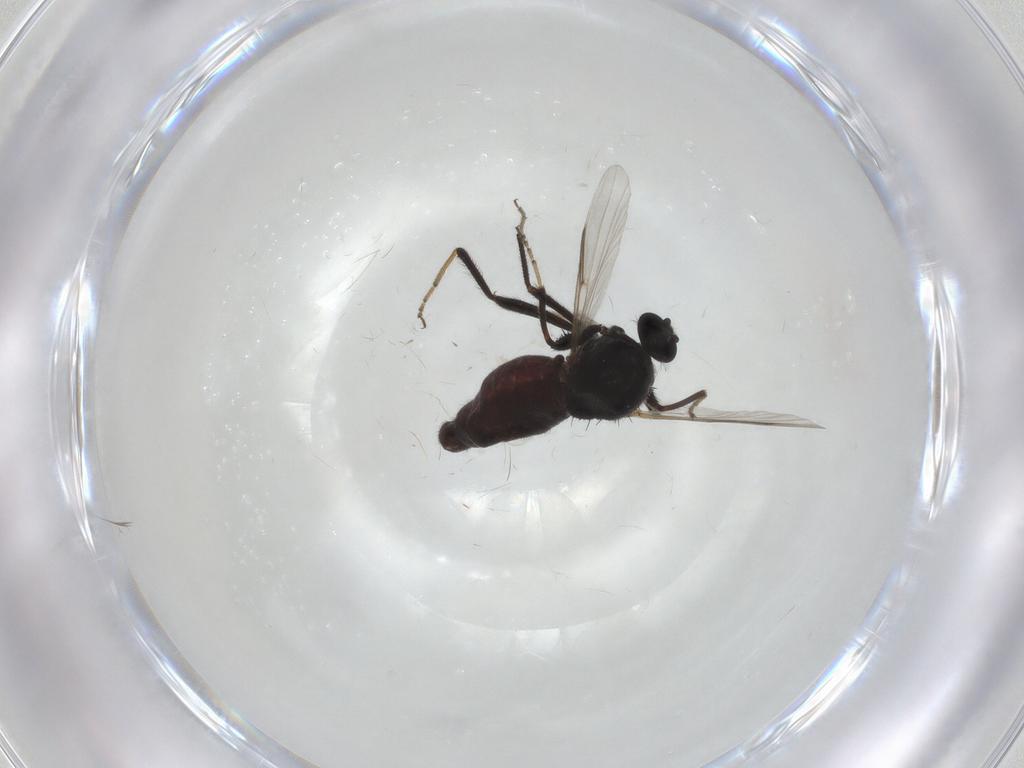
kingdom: Animalia
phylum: Arthropoda
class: Insecta
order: Diptera
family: Ceratopogonidae
